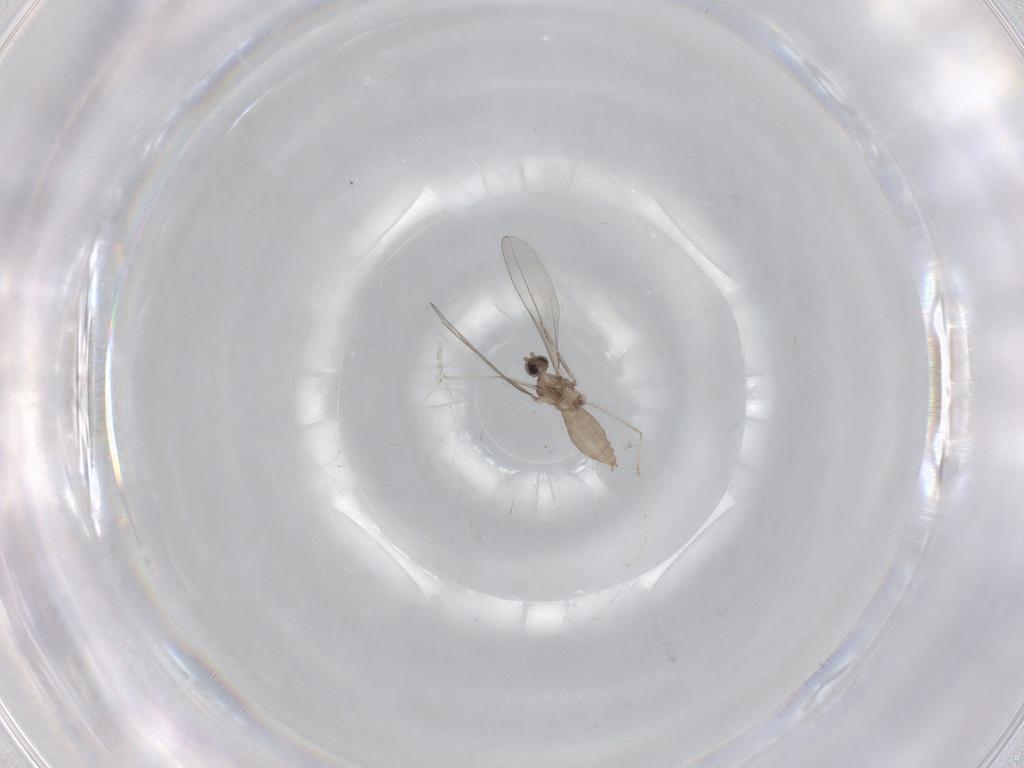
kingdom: Animalia
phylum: Arthropoda
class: Insecta
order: Diptera
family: Cecidomyiidae
